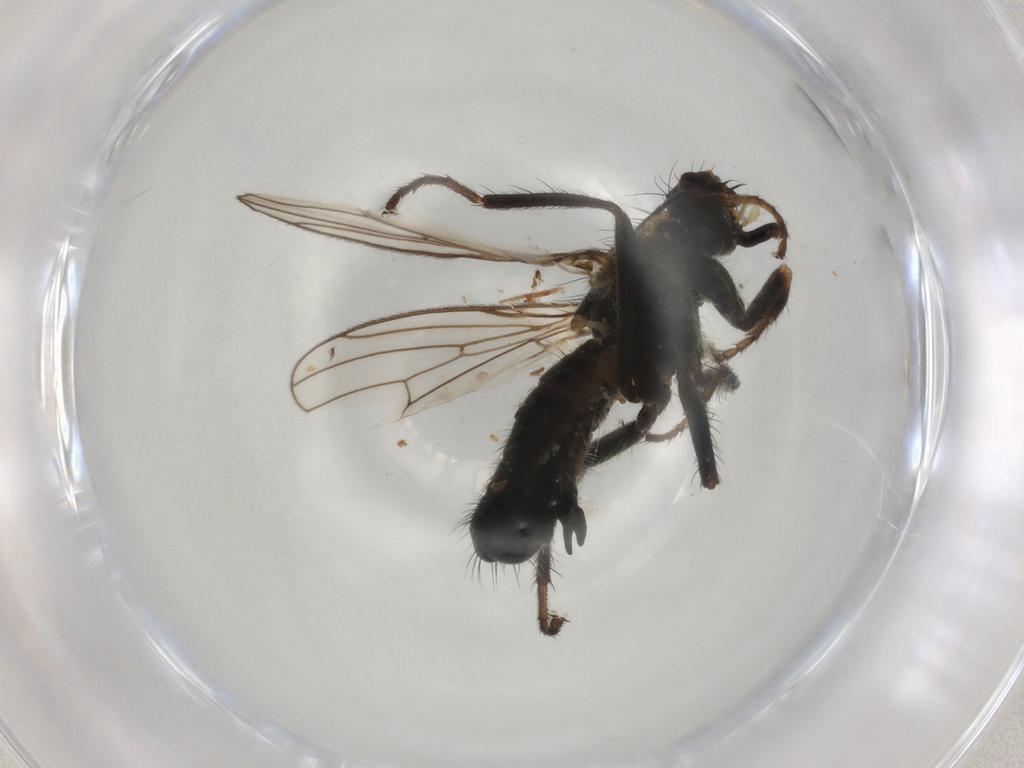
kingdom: Animalia
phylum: Arthropoda
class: Insecta
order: Diptera
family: Scathophagidae
